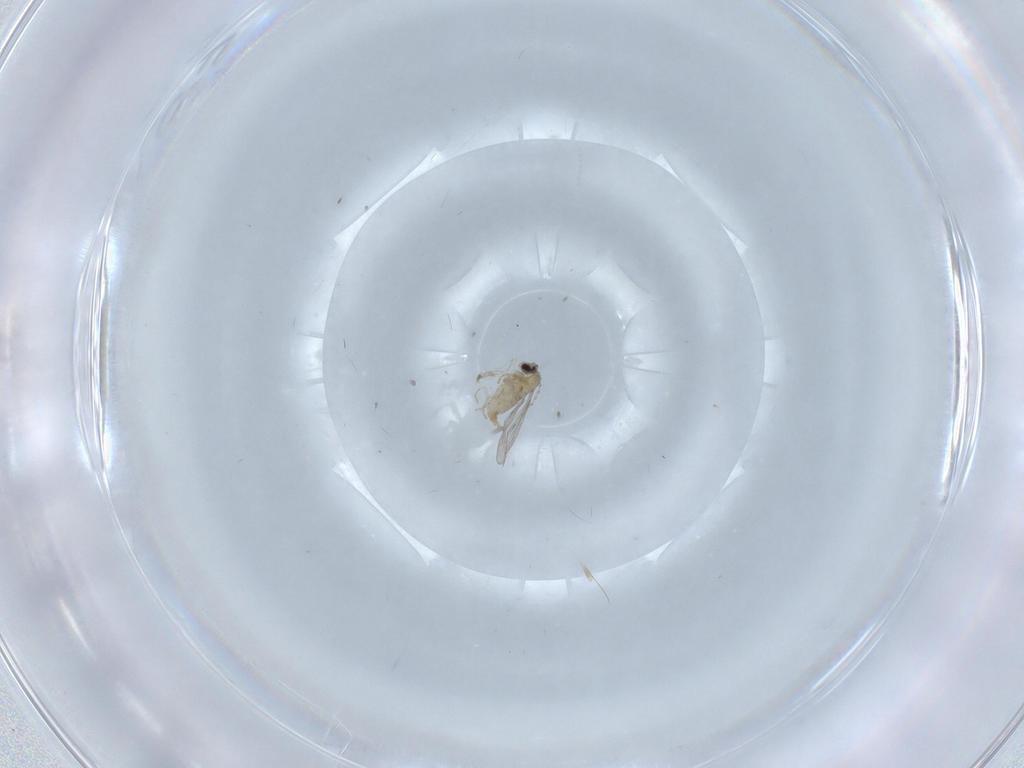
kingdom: Animalia
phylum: Arthropoda
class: Insecta
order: Diptera
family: Cecidomyiidae
